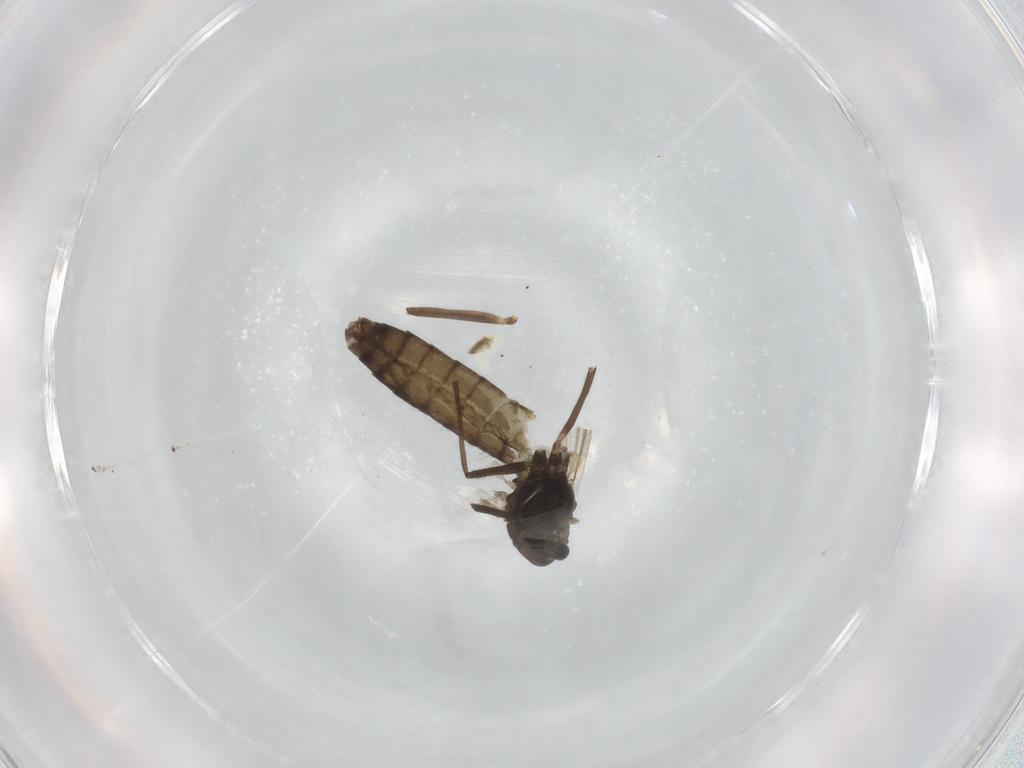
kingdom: Animalia
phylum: Arthropoda
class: Insecta
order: Diptera
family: Chironomidae
